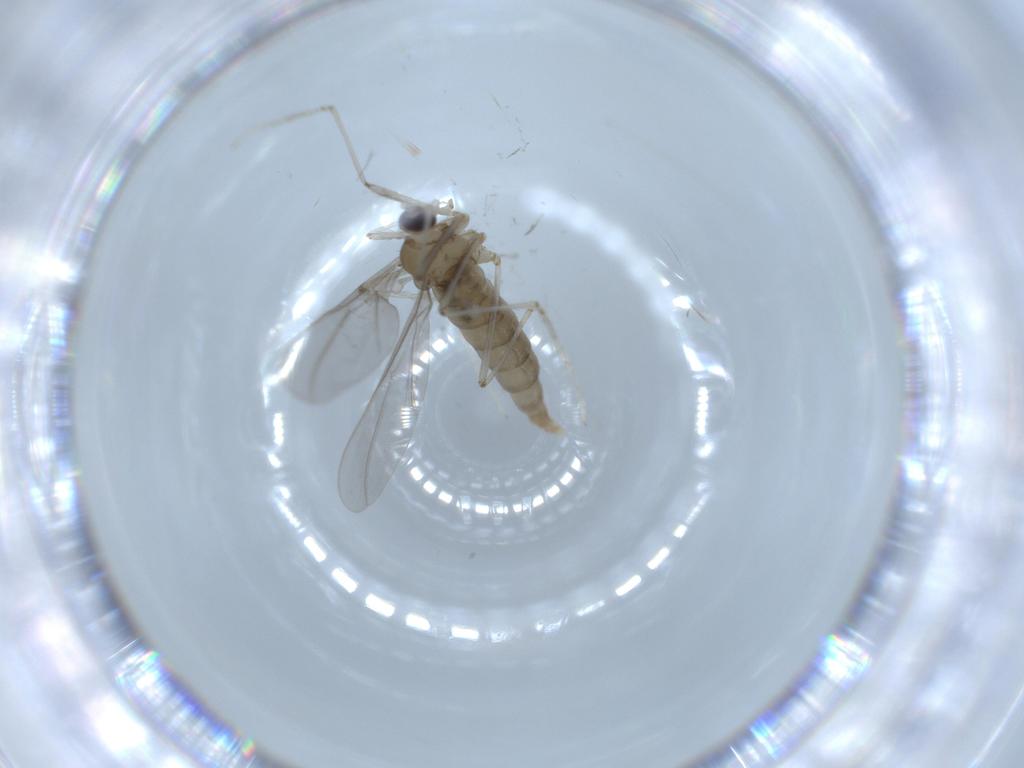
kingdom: Animalia
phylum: Arthropoda
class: Insecta
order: Diptera
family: Cecidomyiidae
